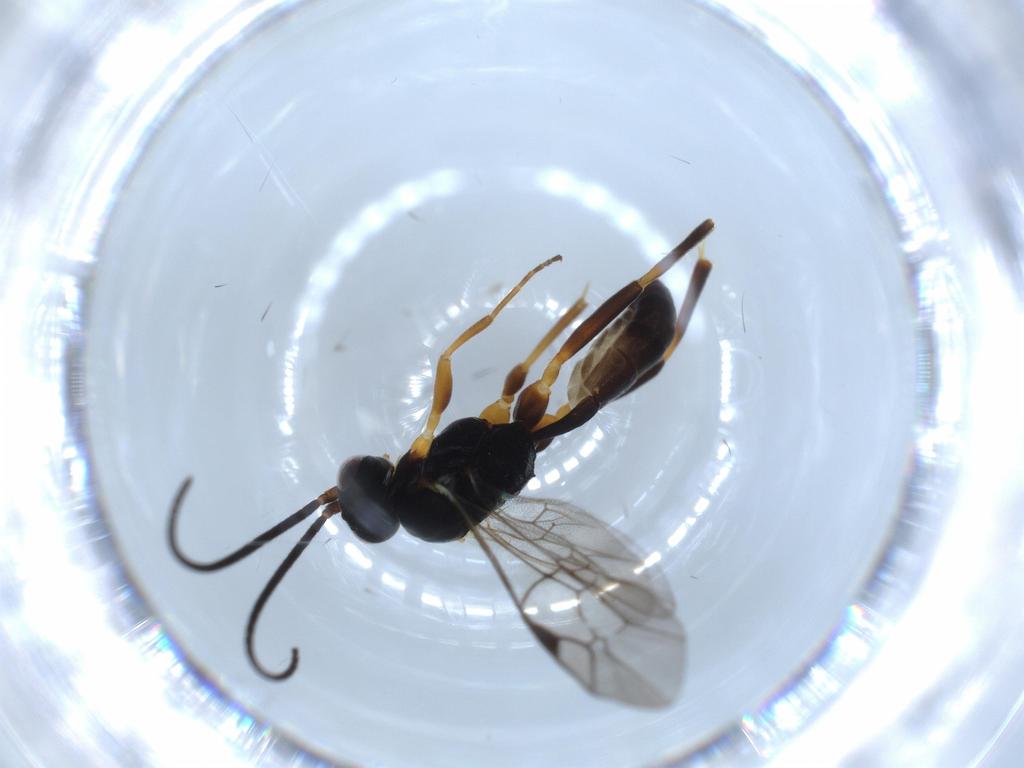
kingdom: Animalia
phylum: Arthropoda
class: Insecta
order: Hymenoptera
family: Ichneumonidae
